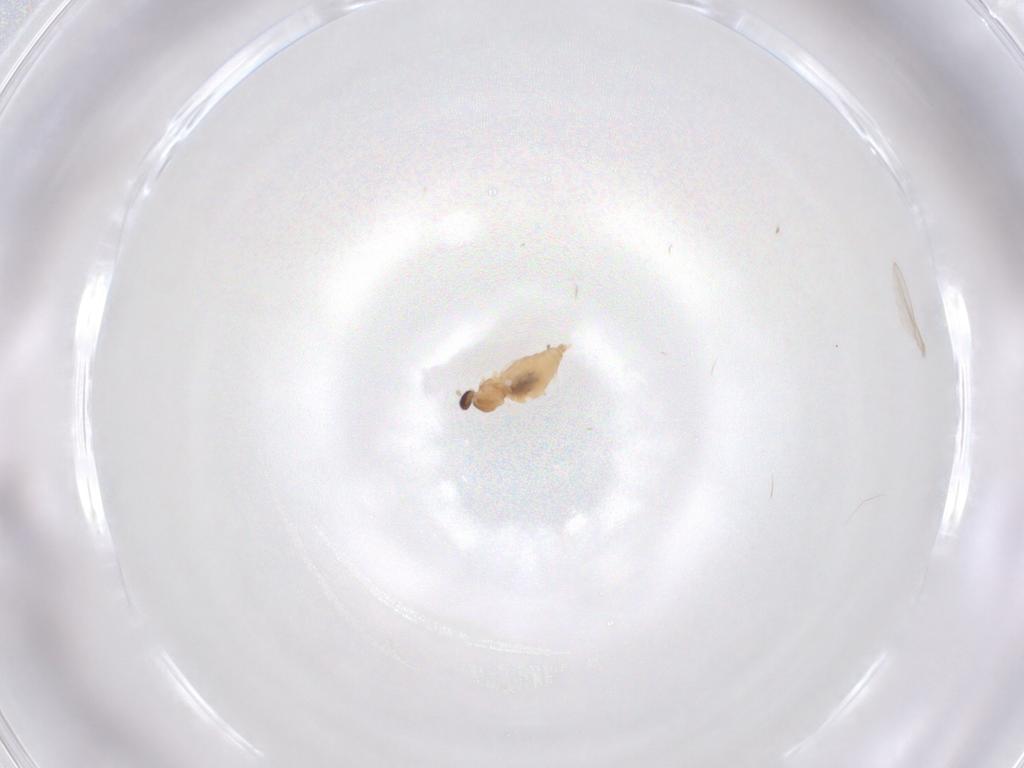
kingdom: Animalia
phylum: Arthropoda
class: Insecta
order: Diptera
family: Cecidomyiidae
